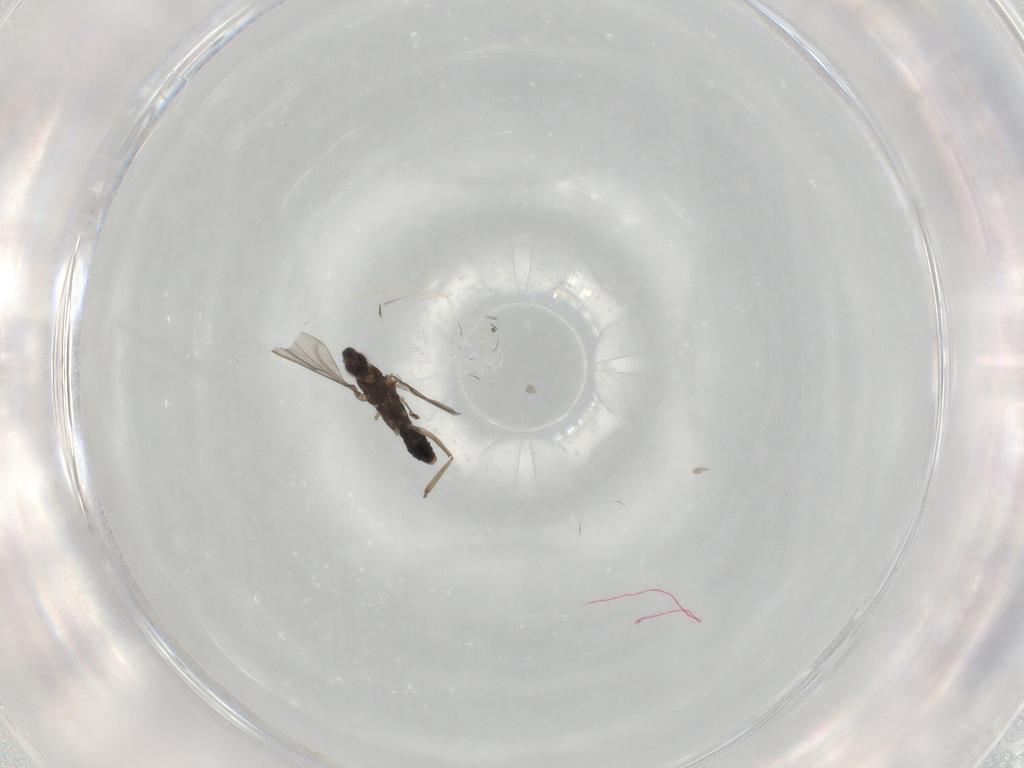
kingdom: Animalia
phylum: Arthropoda
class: Insecta
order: Diptera
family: Cecidomyiidae
